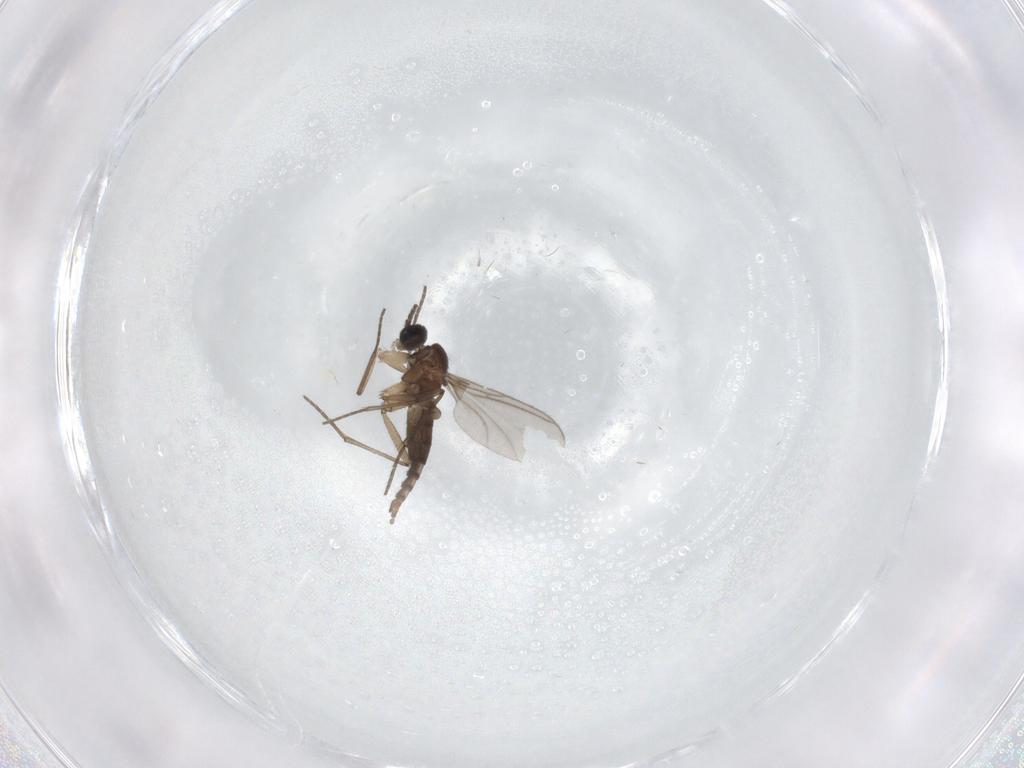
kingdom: Animalia
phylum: Arthropoda
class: Insecta
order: Diptera
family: Sciaridae
